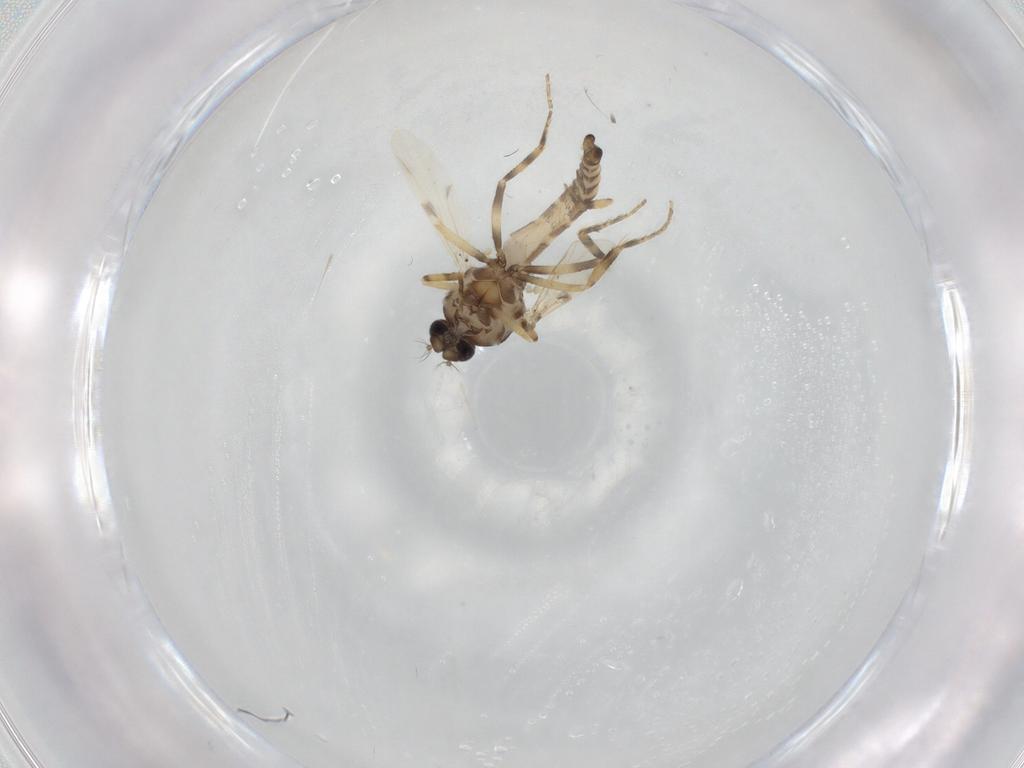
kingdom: Animalia
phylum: Arthropoda
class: Insecta
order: Diptera
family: Ceratopogonidae
